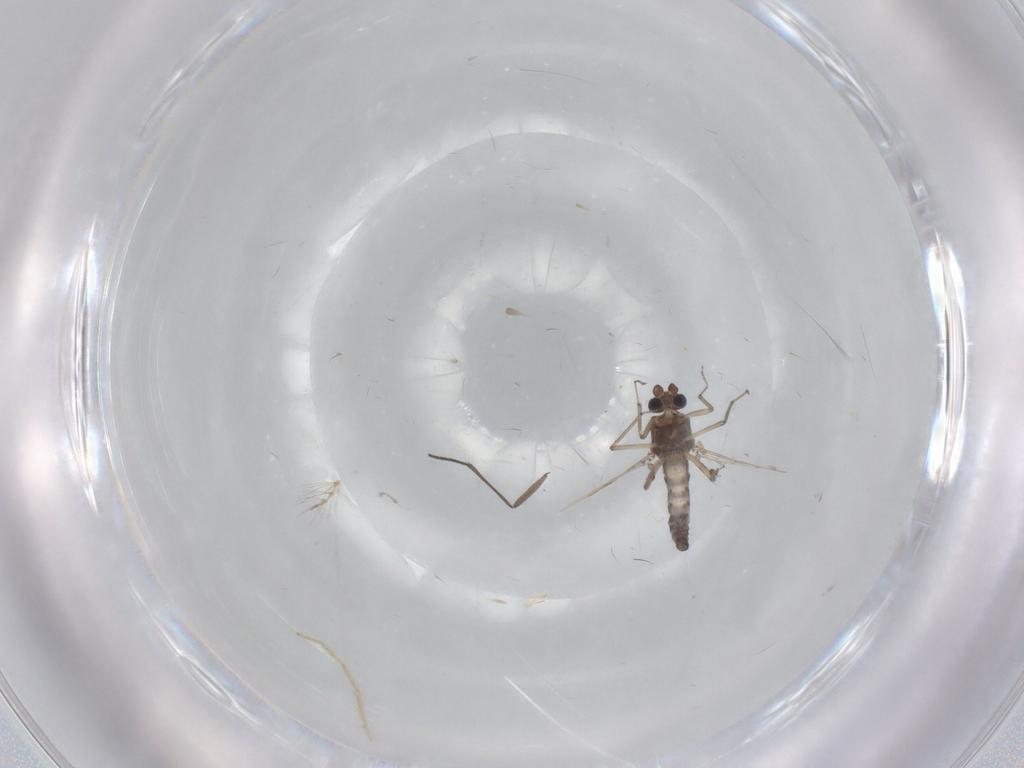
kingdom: Animalia
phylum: Arthropoda
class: Insecta
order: Diptera
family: Ceratopogonidae
